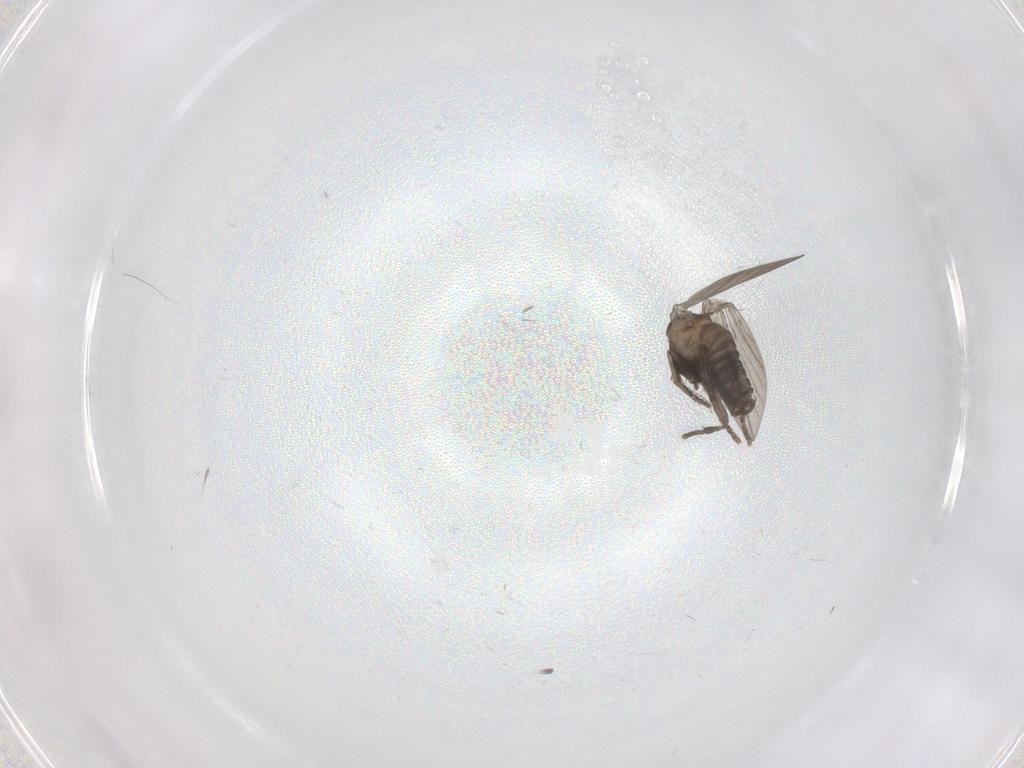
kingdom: Animalia
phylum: Arthropoda
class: Insecta
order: Diptera
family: Psychodidae
